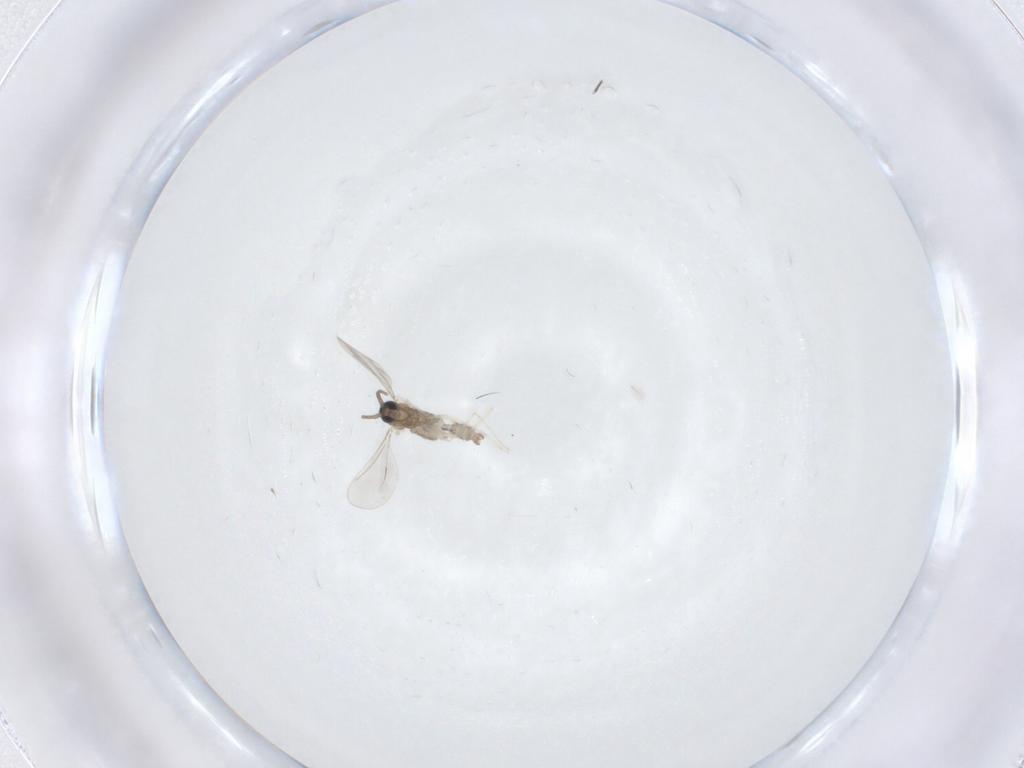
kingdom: Animalia
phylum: Arthropoda
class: Insecta
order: Diptera
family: Cecidomyiidae
